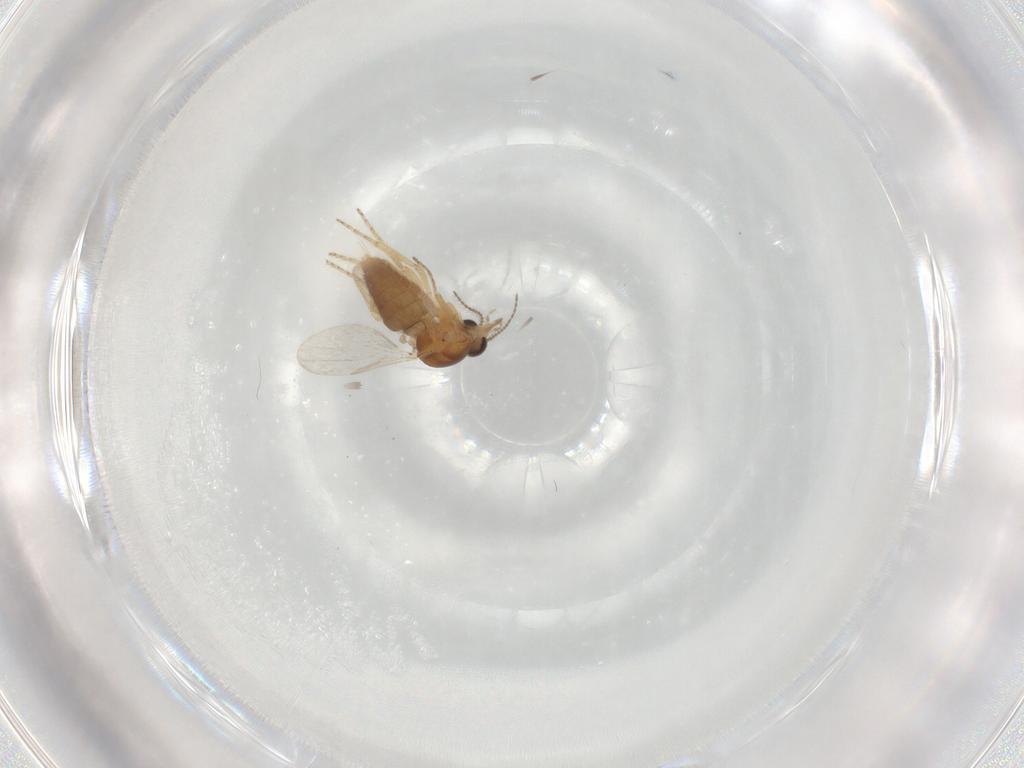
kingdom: Animalia
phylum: Arthropoda
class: Insecta
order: Diptera
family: Ceratopogonidae
